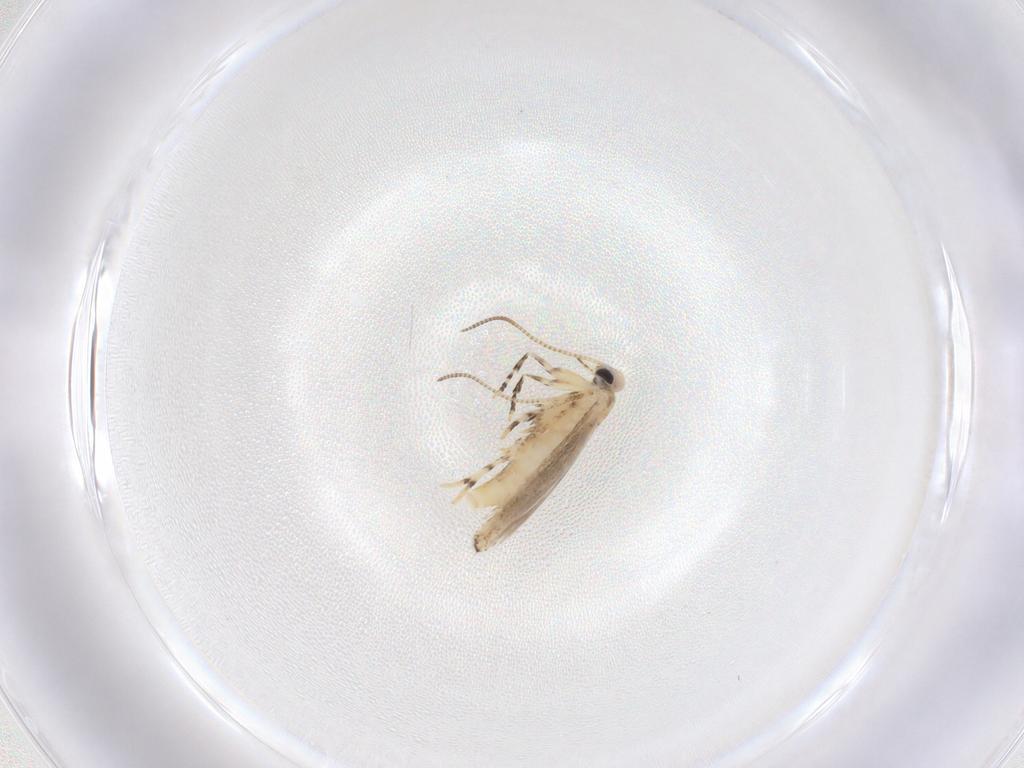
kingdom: Animalia
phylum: Arthropoda
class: Insecta
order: Lepidoptera
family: Gracillariidae
